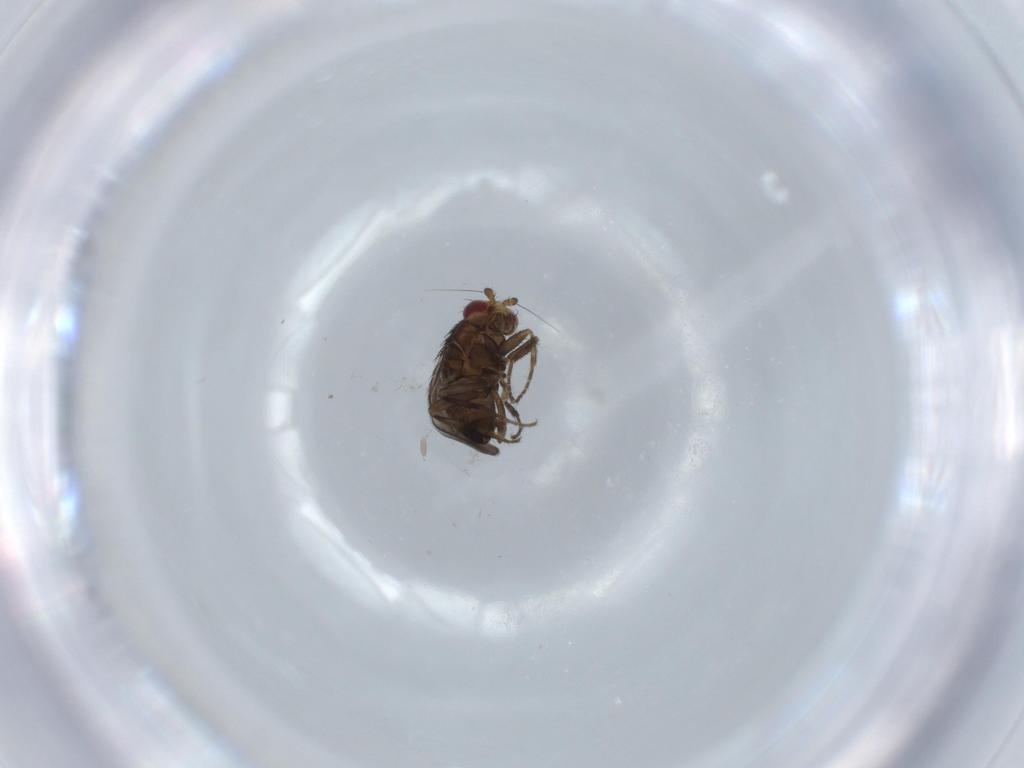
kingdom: Animalia
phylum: Arthropoda
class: Insecta
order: Diptera
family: Sphaeroceridae
